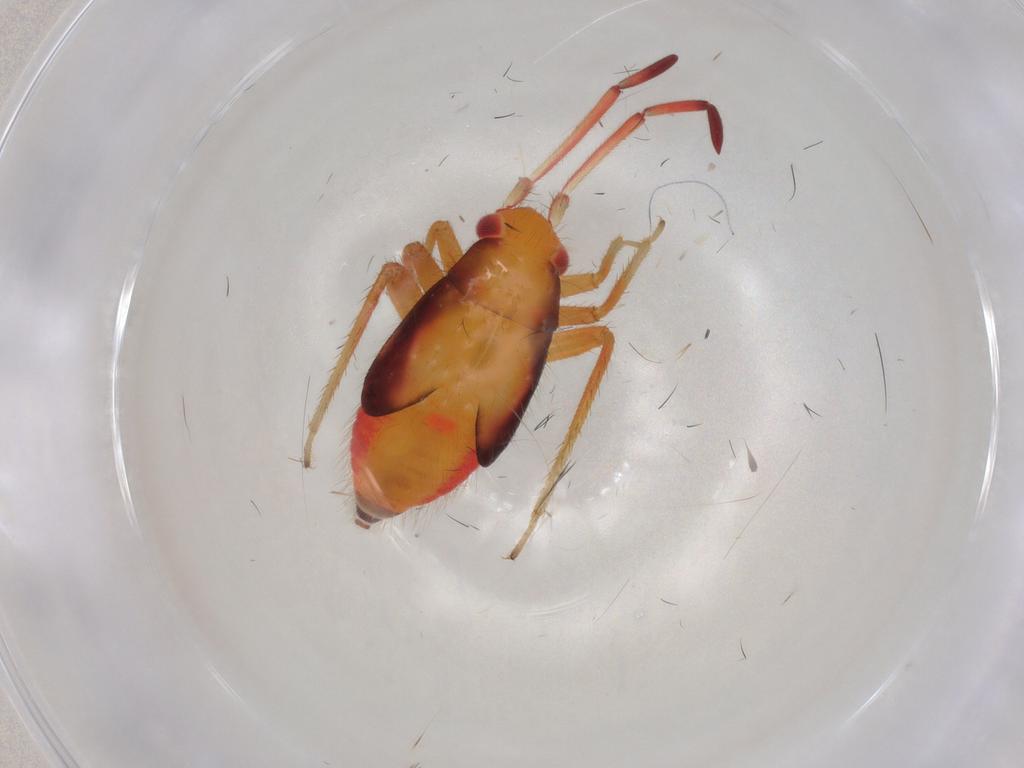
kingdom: Animalia
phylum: Arthropoda
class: Insecta
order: Hemiptera
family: Miridae
